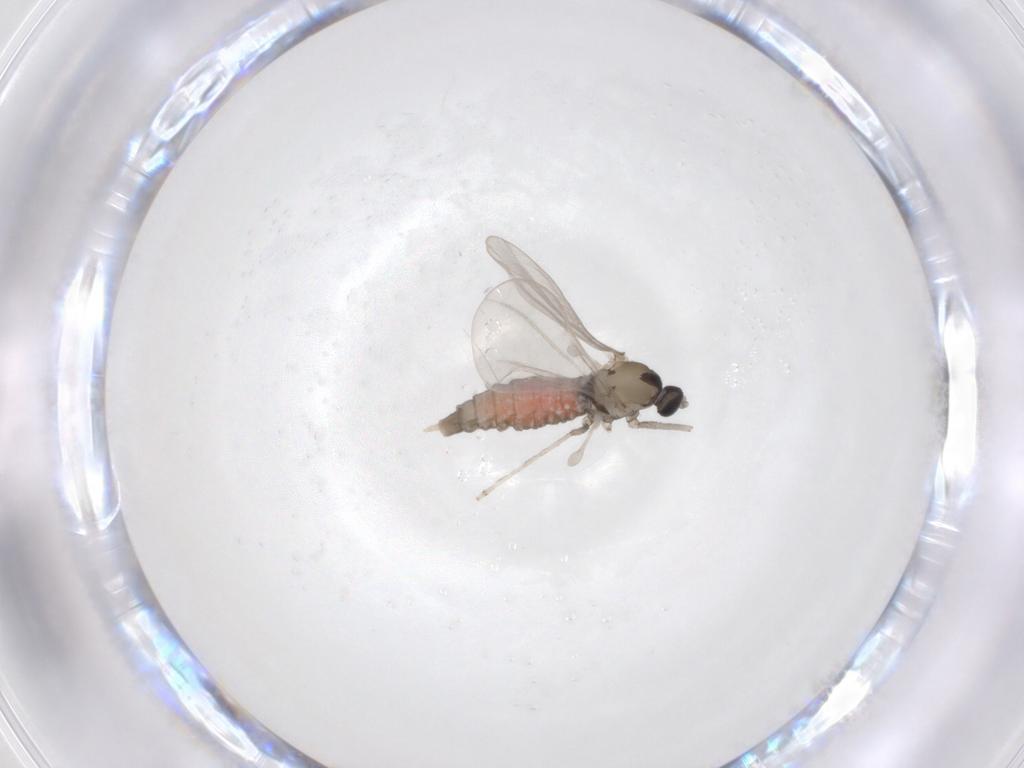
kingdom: Animalia
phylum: Arthropoda
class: Insecta
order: Diptera
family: Cecidomyiidae
